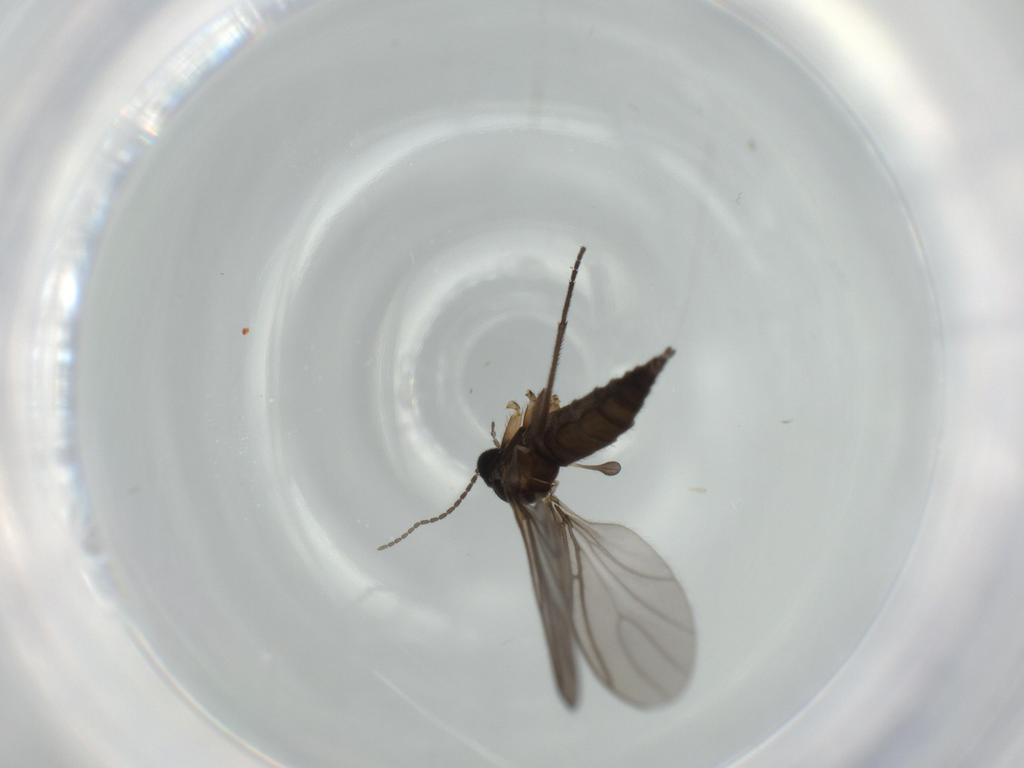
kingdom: Animalia
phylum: Arthropoda
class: Insecta
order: Diptera
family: Sciaridae
